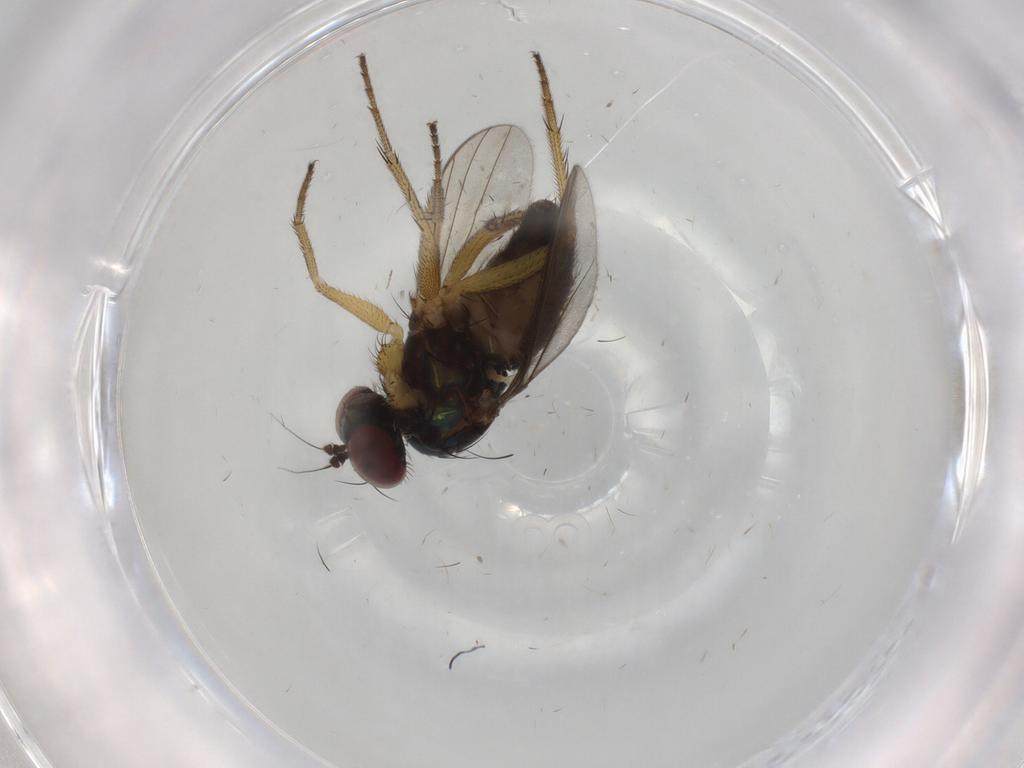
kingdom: Animalia
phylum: Arthropoda
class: Insecta
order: Diptera
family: Dolichopodidae
